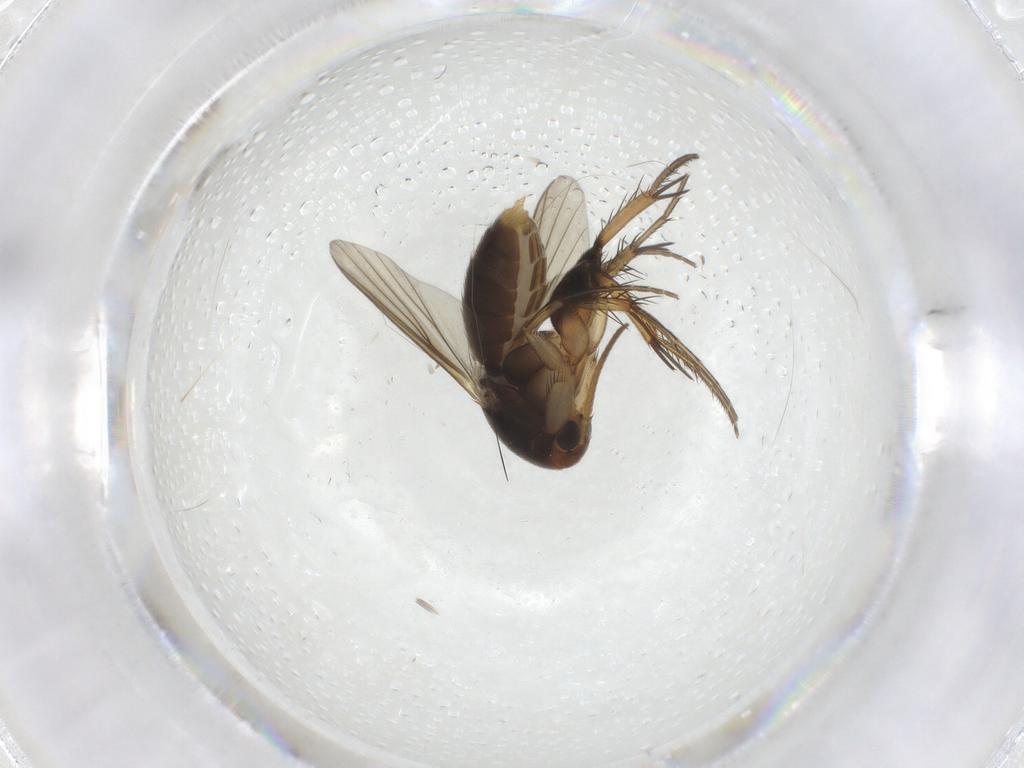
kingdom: Animalia
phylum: Arthropoda
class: Insecta
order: Diptera
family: Mycetophilidae
